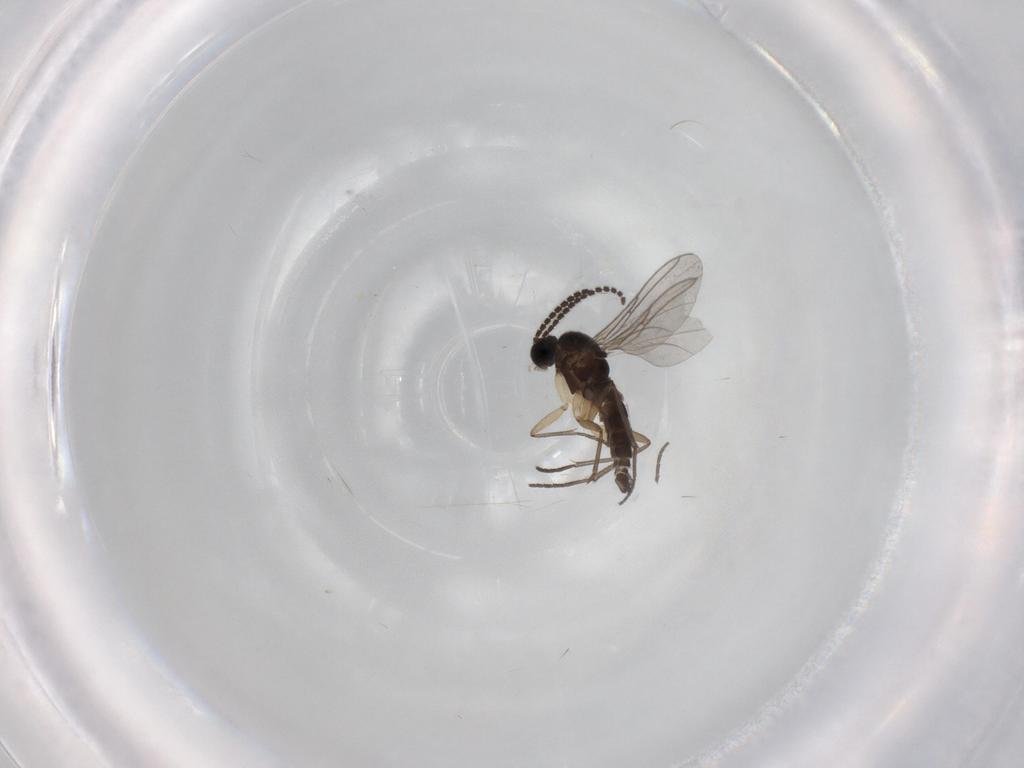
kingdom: Animalia
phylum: Arthropoda
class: Insecta
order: Diptera
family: Sciaridae
